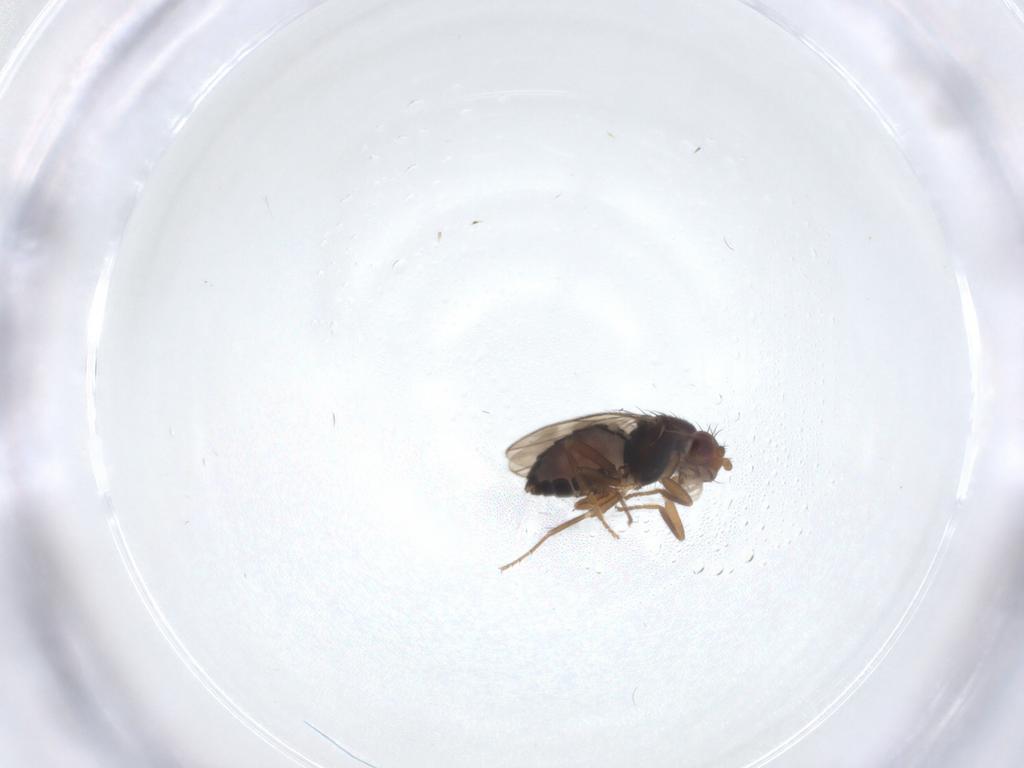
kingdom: Animalia
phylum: Arthropoda
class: Insecta
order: Diptera
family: Sphaeroceridae
